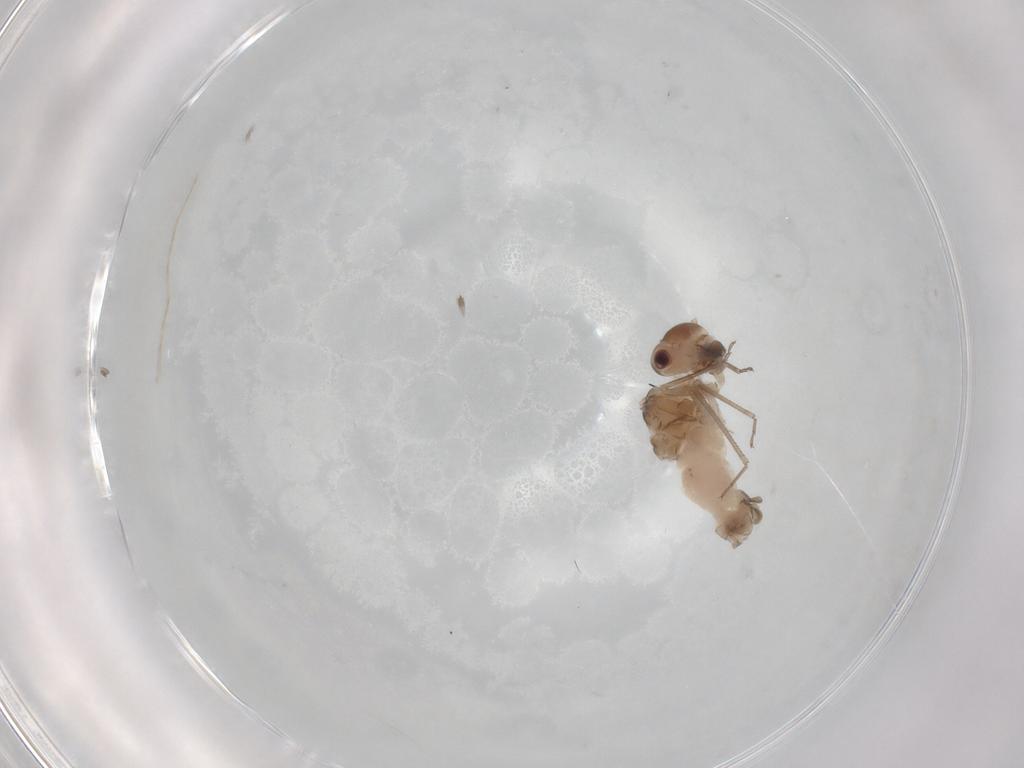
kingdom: Animalia
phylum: Arthropoda
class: Insecta
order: Psocodea
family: Peripsocidae
